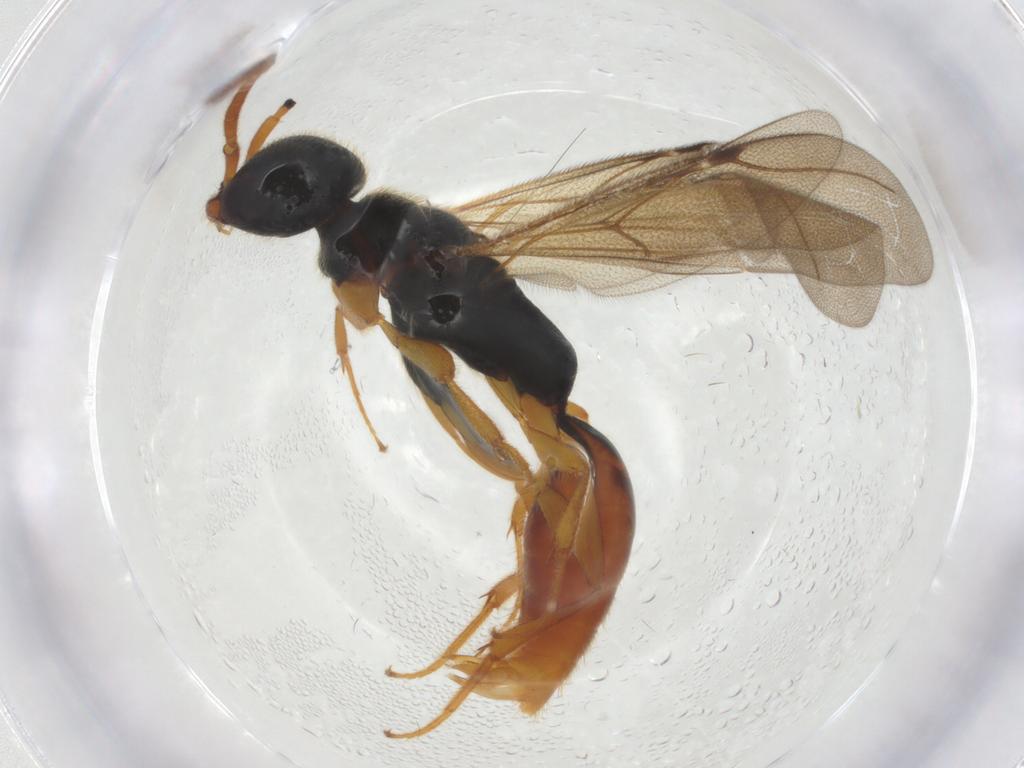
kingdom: Animalia
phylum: Arthropoda
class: Insecta
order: Hymenoptera
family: Bethylidae
